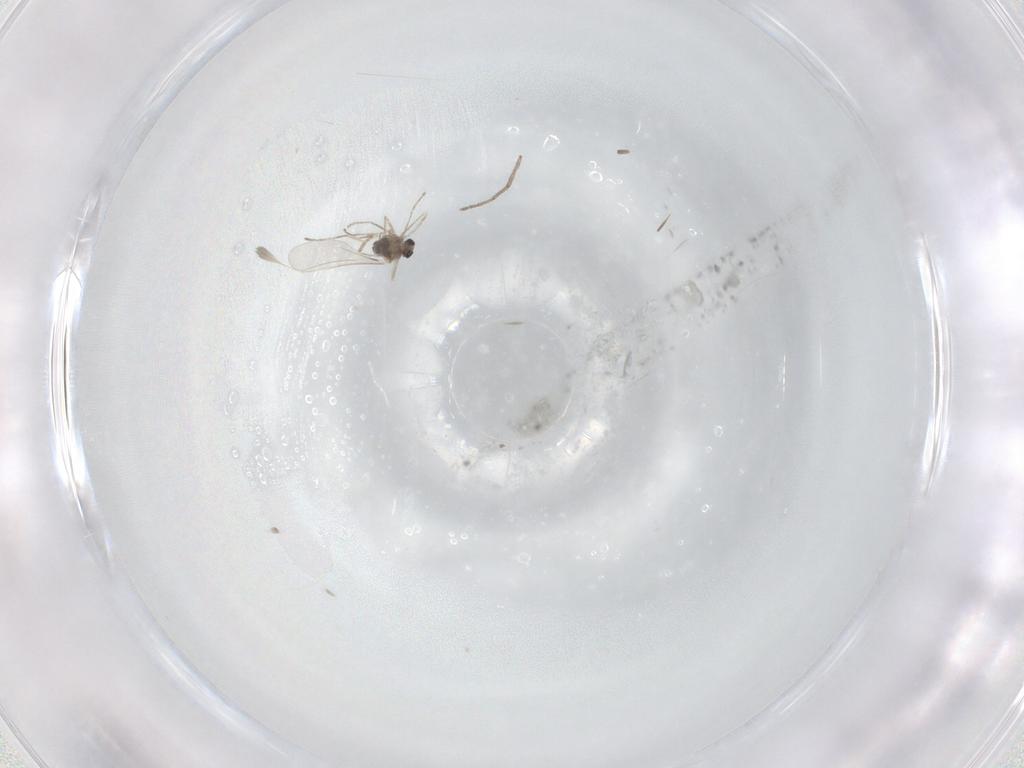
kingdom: Animalia
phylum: Arthropoda
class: Insecta
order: Diptera
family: Cecidomyiidae
